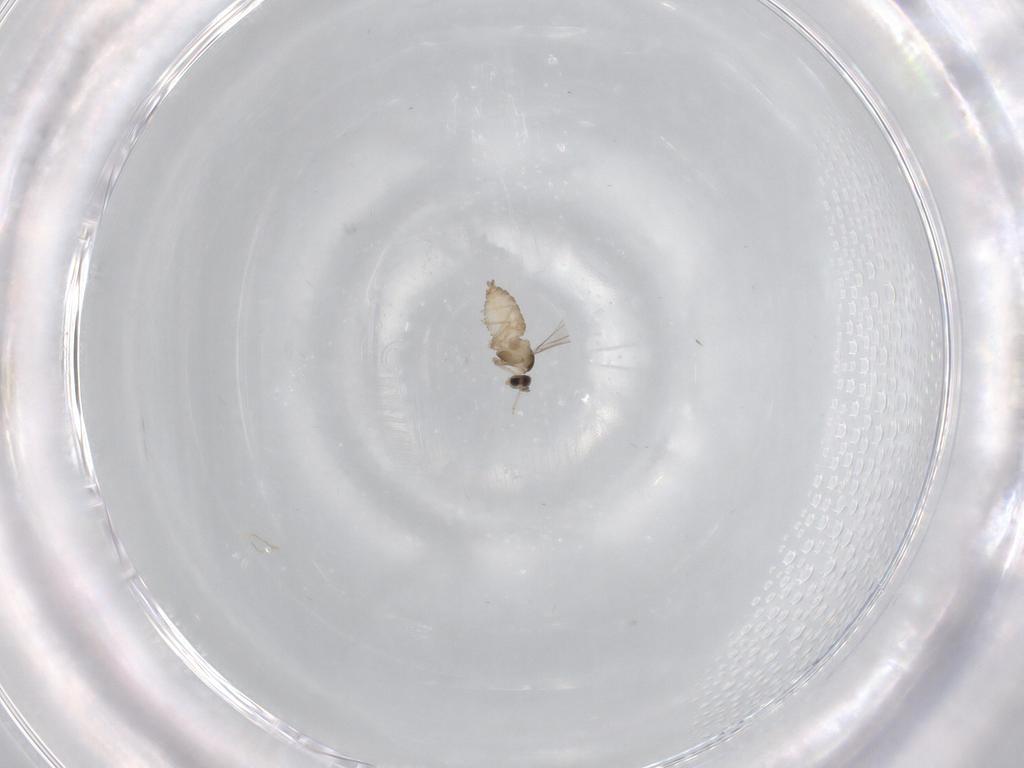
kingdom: Animalia
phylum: Arthropoda
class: Insecta
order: Diptera
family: Cecidomyiidae
